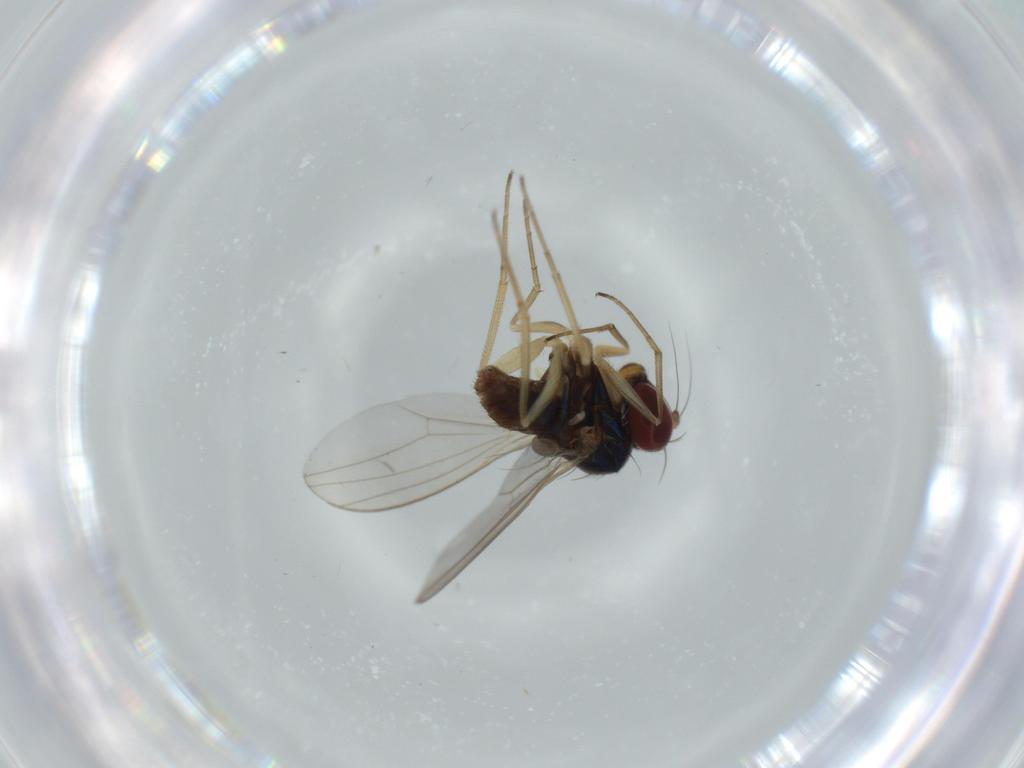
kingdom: Animalia
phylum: Arthropoda
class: Insecta
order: Diptera
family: Dolichopodidae
